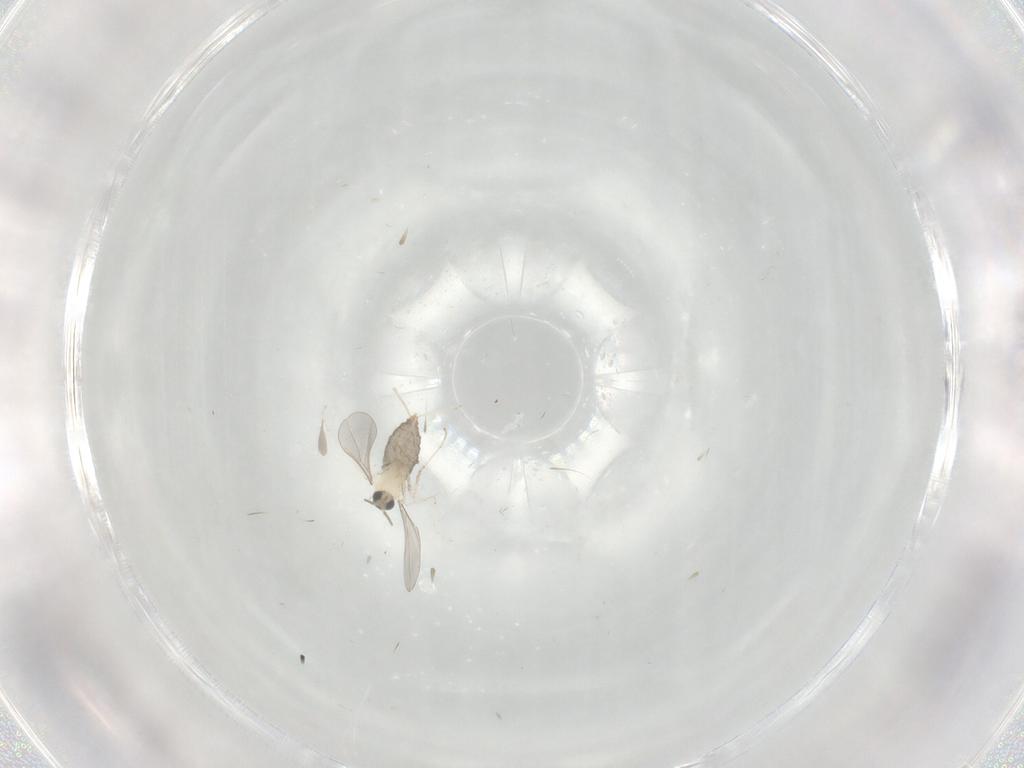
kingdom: Animalia
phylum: Arthropoda
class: Insecta
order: Diptera
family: Cecidomyiidae
